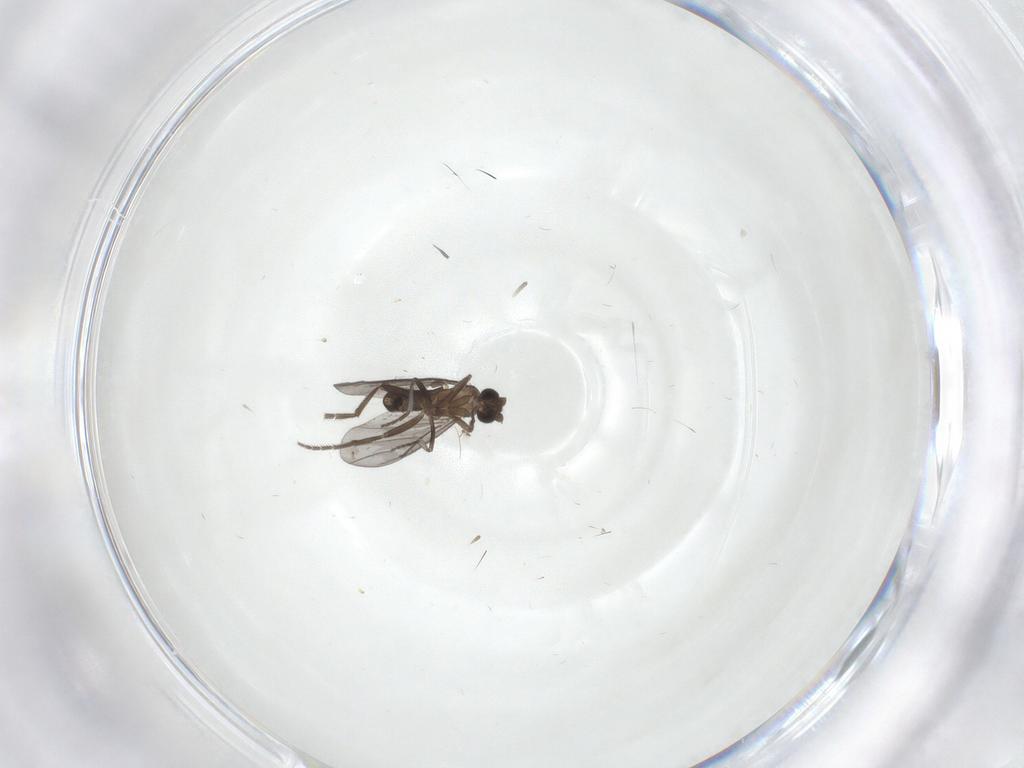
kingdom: Animalia
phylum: Arthropoda
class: Insecta
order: Diptera
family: Phoridae
